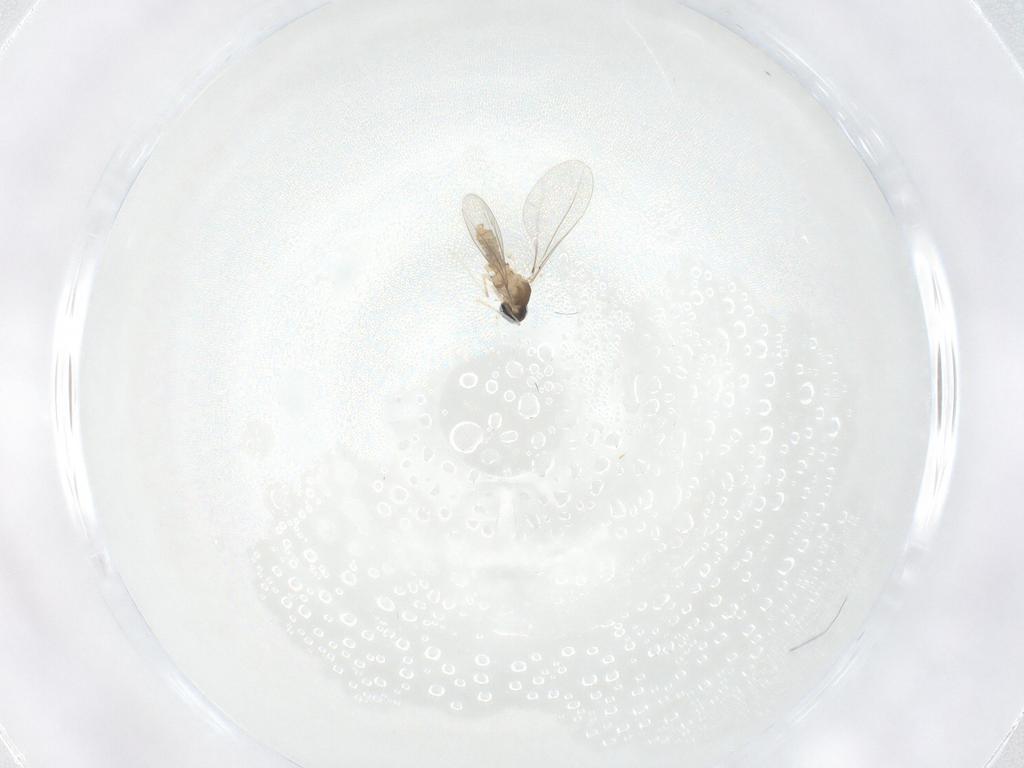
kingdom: Animalia
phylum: Arthropoda
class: Insecta
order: Diptera
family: Cecidomyiidae
